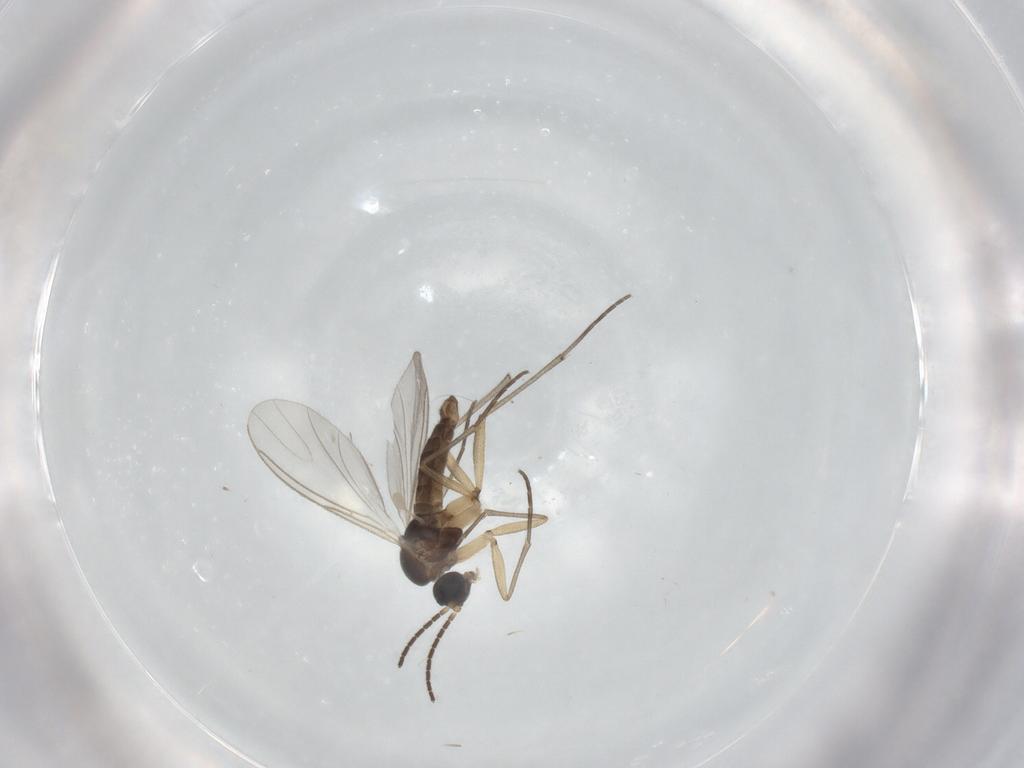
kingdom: Animalia
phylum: Arthropoda
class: Insecta
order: Diptera
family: Sciaridae
